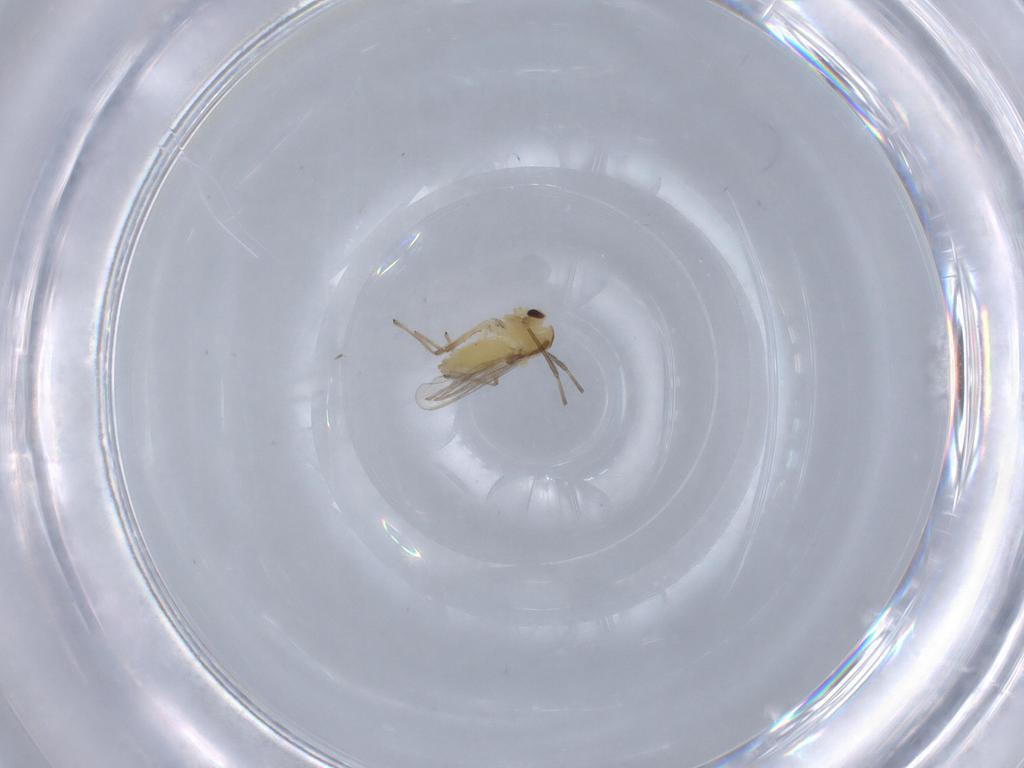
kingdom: Animalia
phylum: Arthropoda
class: Insecta
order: Diptera
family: Chironomidae
